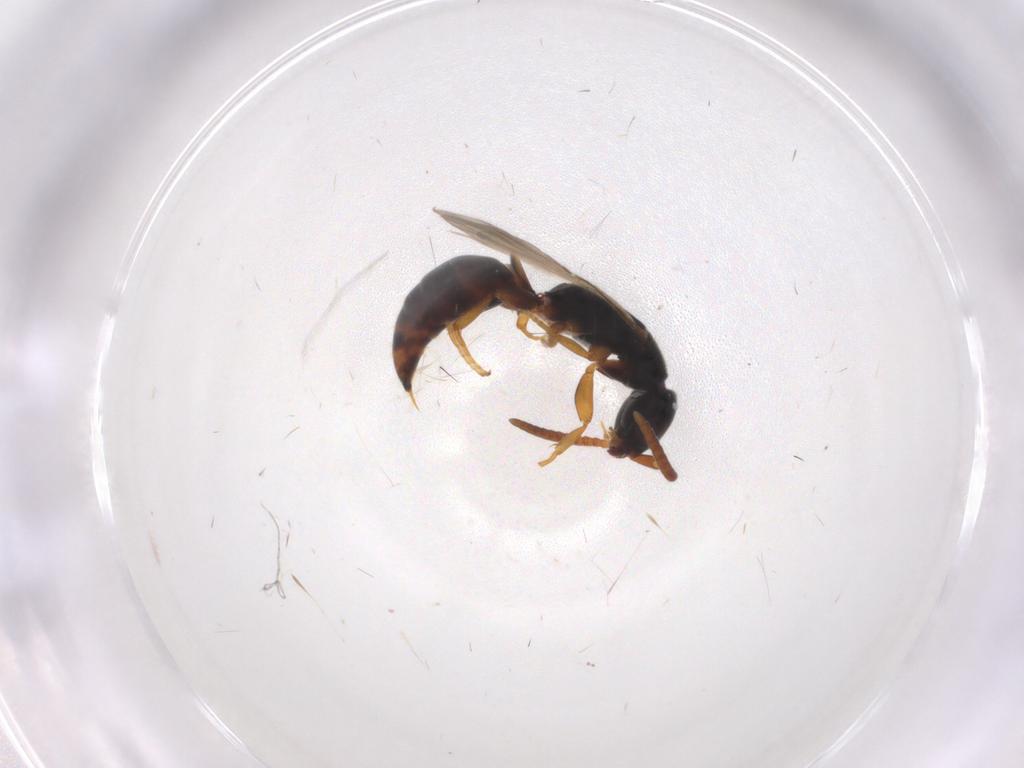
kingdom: Animalia
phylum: Arthropoda
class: Insecta
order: Hymenoptera
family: Bethylidae
